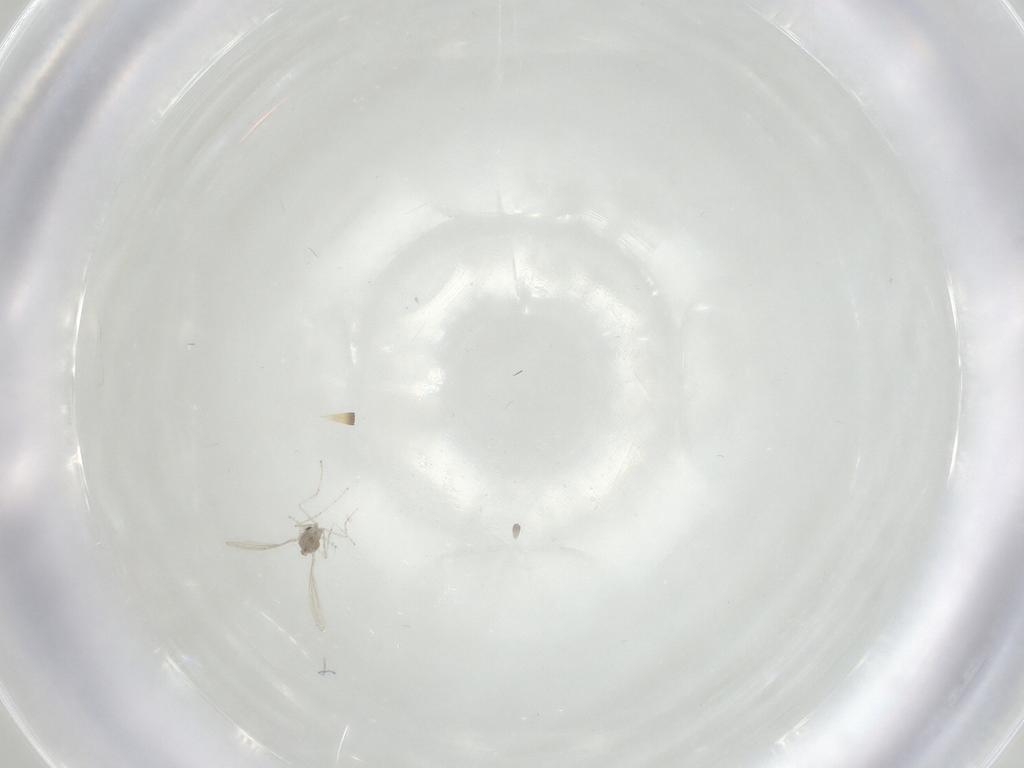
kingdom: Animalia
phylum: Arthropoda
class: Insecta
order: Diptera
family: Cecidomyiidae
